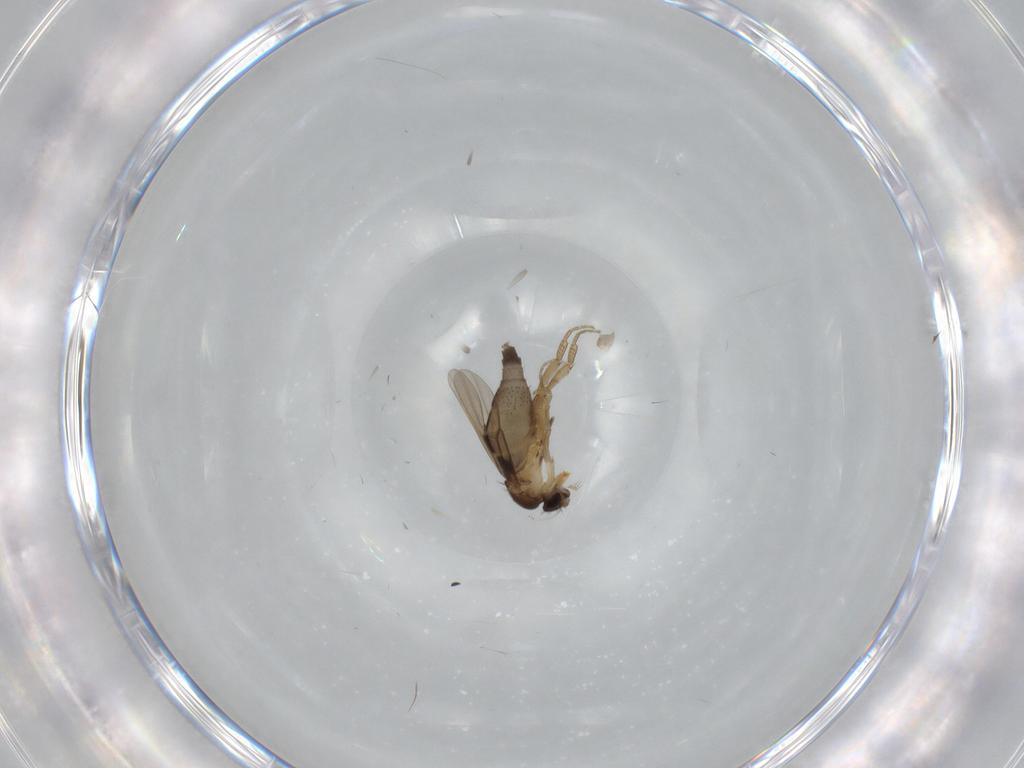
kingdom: Animalia
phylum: Arthropoda
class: Insecta
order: Diptera
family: Phoridae
